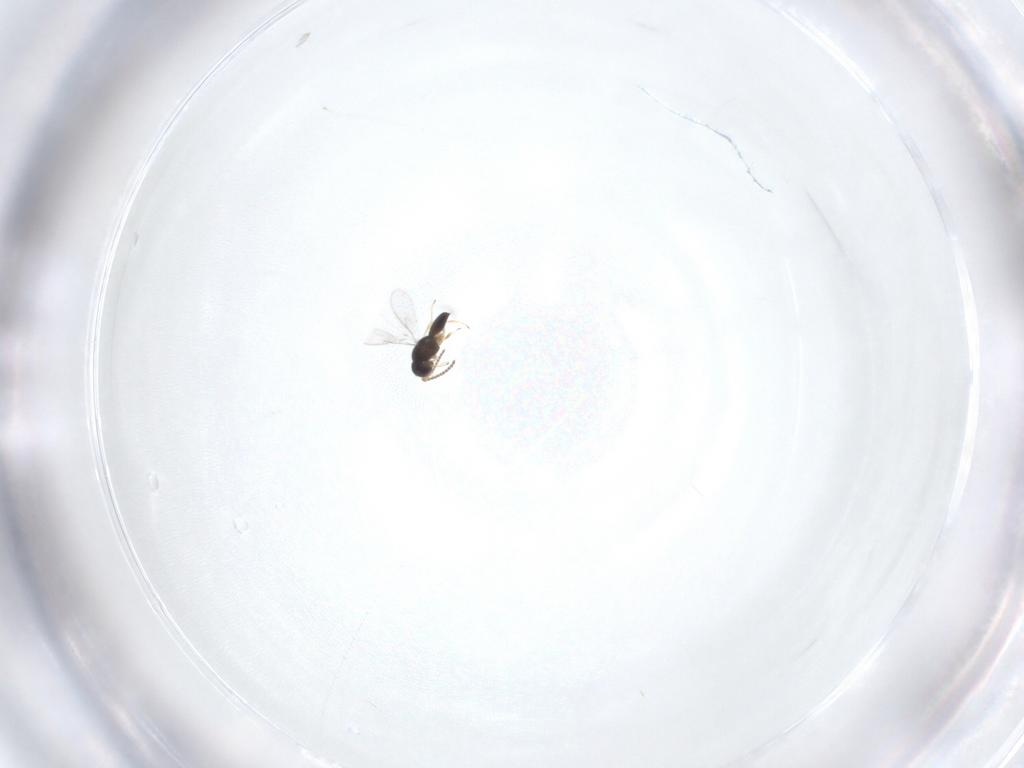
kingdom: Animalia
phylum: Arthropoda
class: Insecta
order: Hymenoptera
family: Scelionidae
